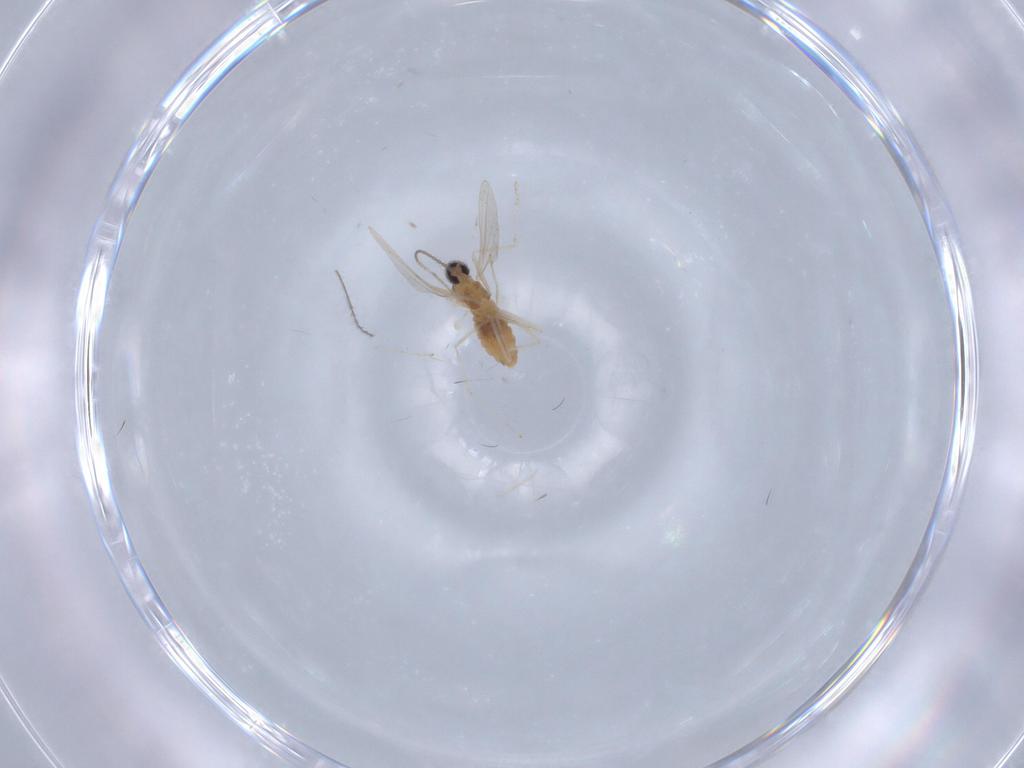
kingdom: Animalia
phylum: Arthropoda
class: Insecta
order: Diptera
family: Cecidomyiidae
